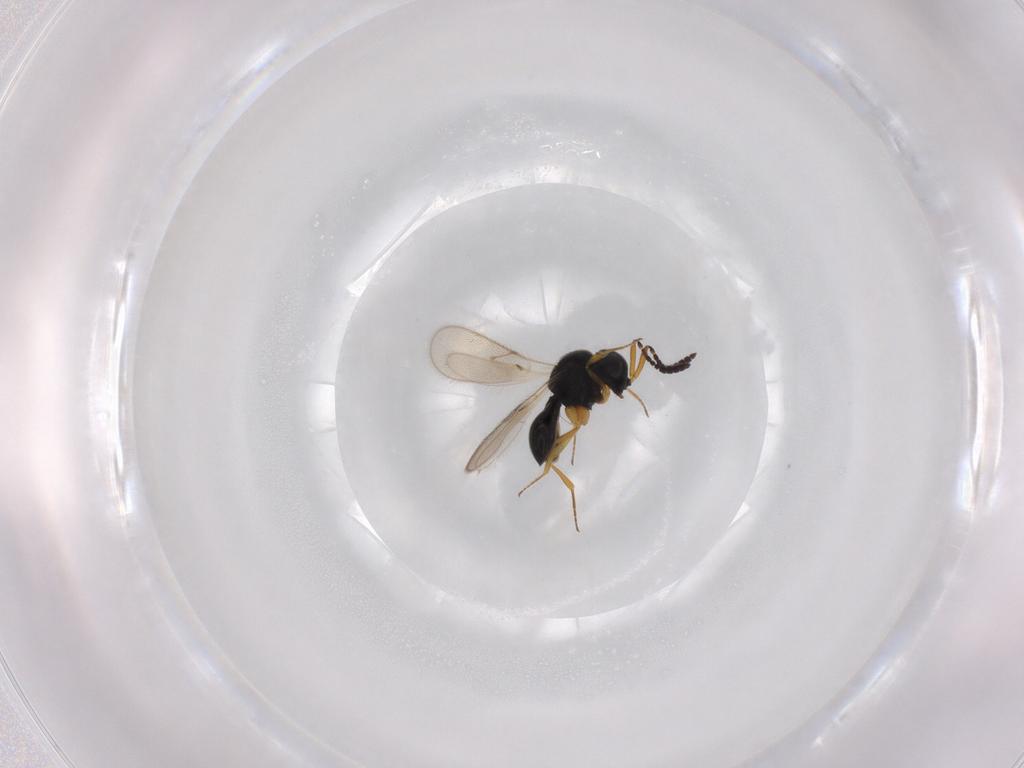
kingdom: Animalia
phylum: Arthropoda
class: Insecta
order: Hymenoptera
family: Scelionidae
